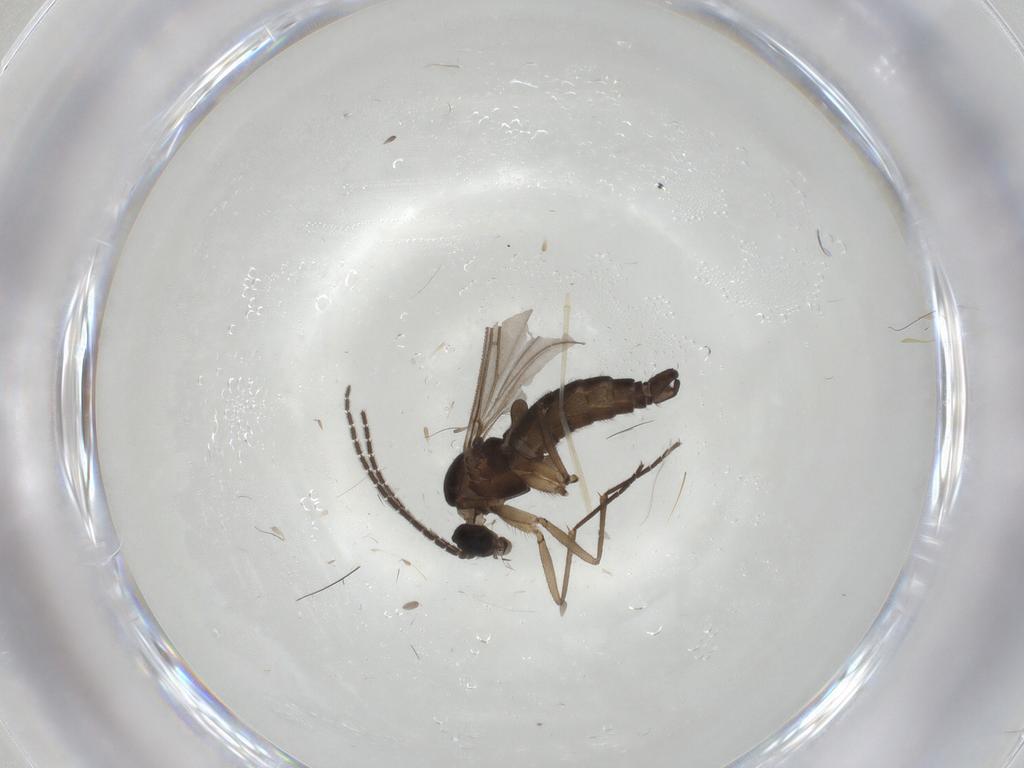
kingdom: Animalia
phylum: Arthropoda
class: Insecta
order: Diptera
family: Sciaridae
